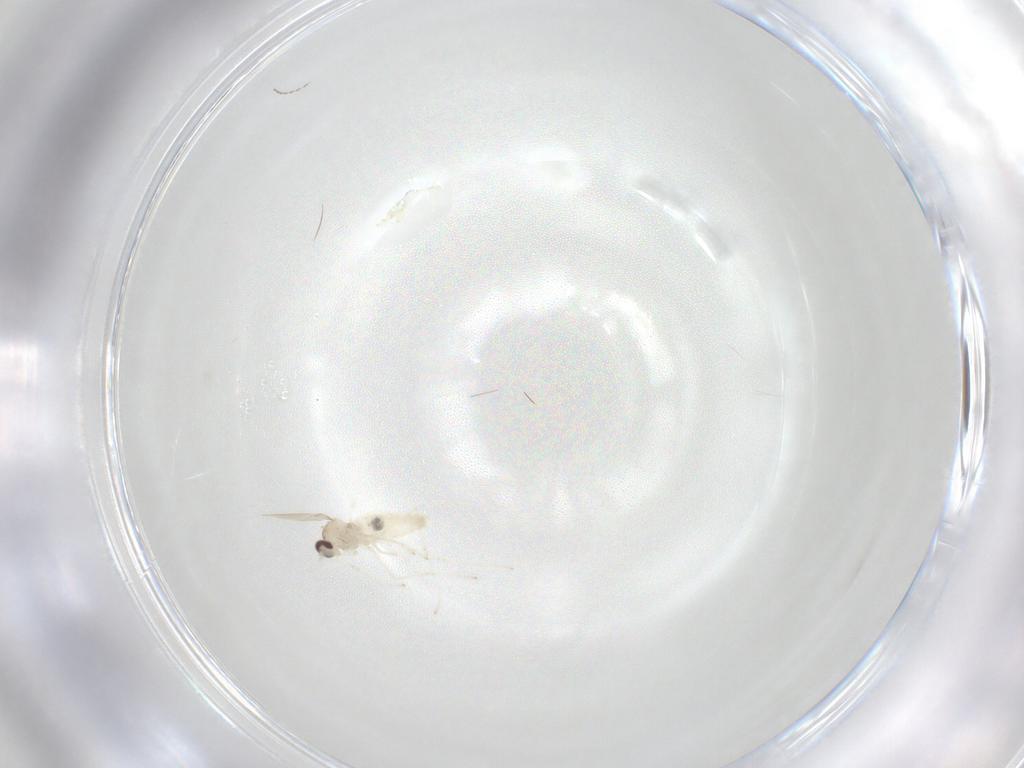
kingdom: Animalia
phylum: Arthropoda
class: Insecta
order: Diptera
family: Cecidomyiidae
